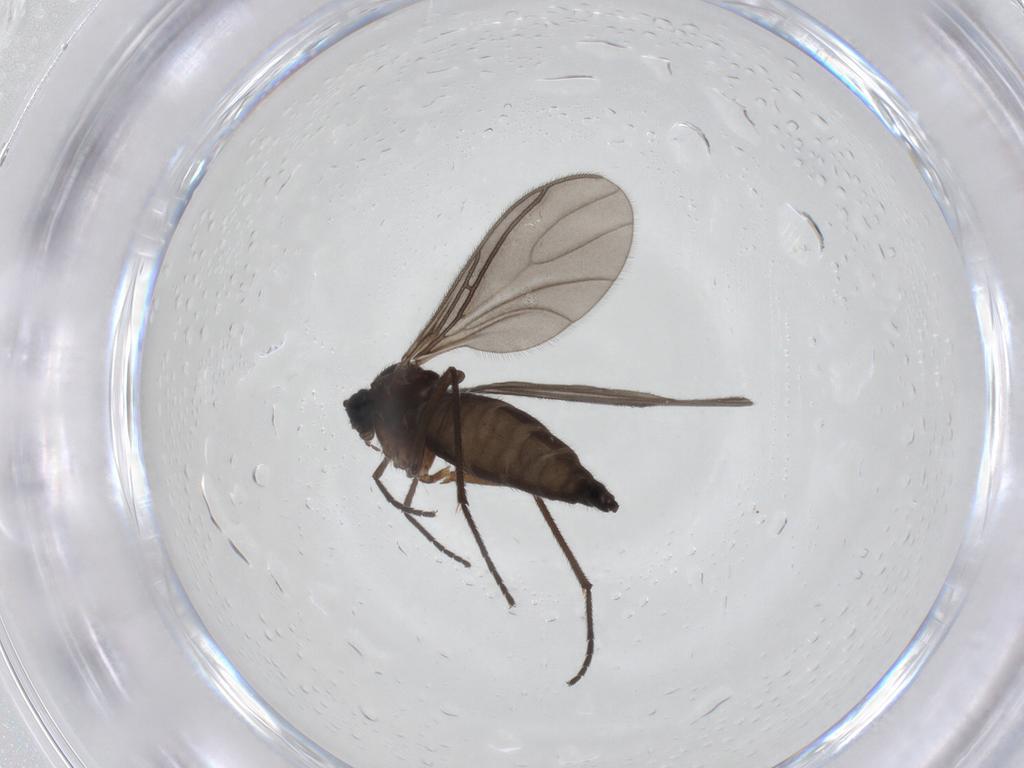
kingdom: Animalia
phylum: Arthropoda
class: Insecta
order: Diptera
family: Sciaridae
